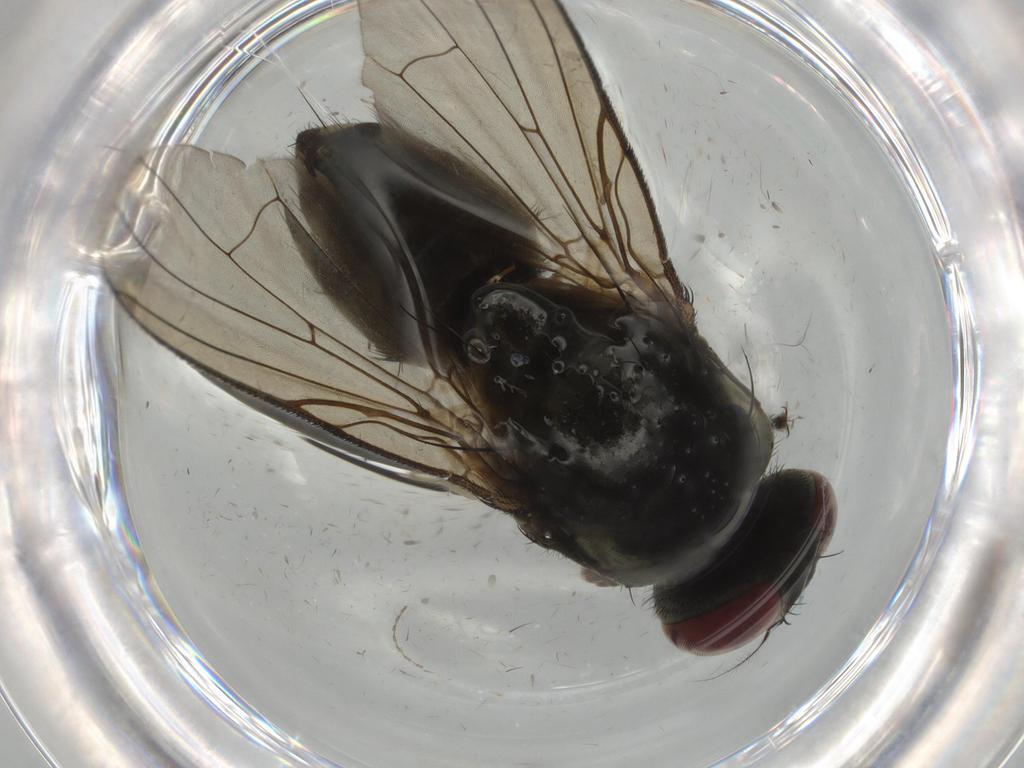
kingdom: Animalia
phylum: Arthropoda
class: Insecta
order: Diptera
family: Muscidae
